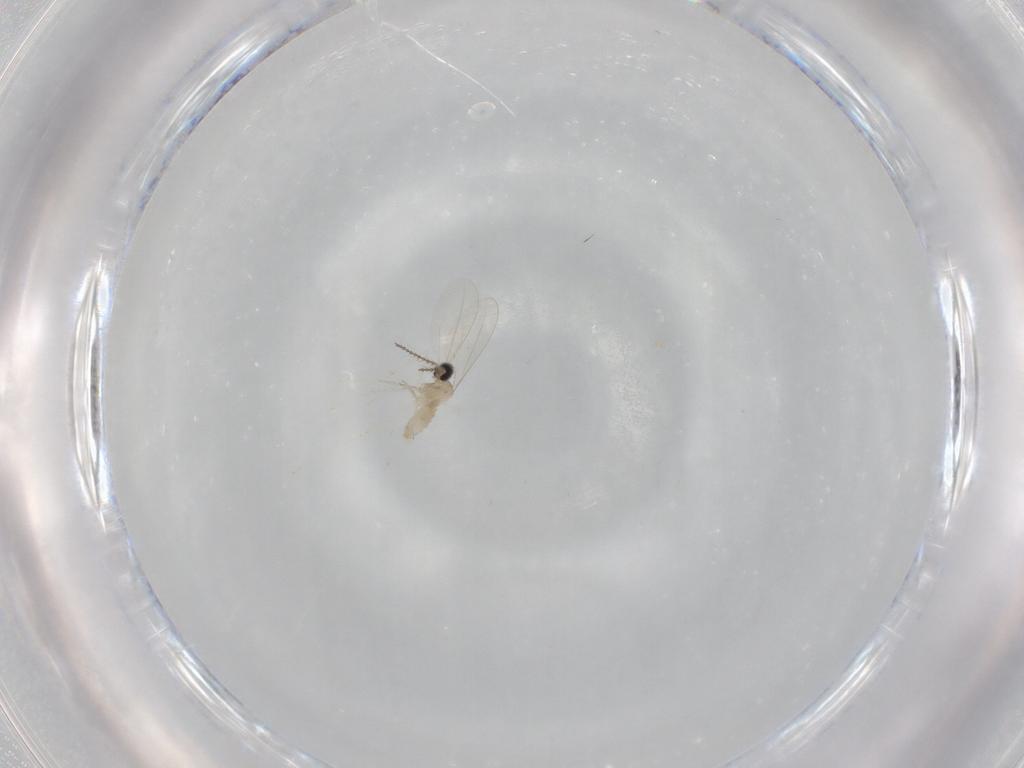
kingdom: Animalia
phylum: Arthropoda
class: Insecta
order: Diptera
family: Cecidomyiidae
